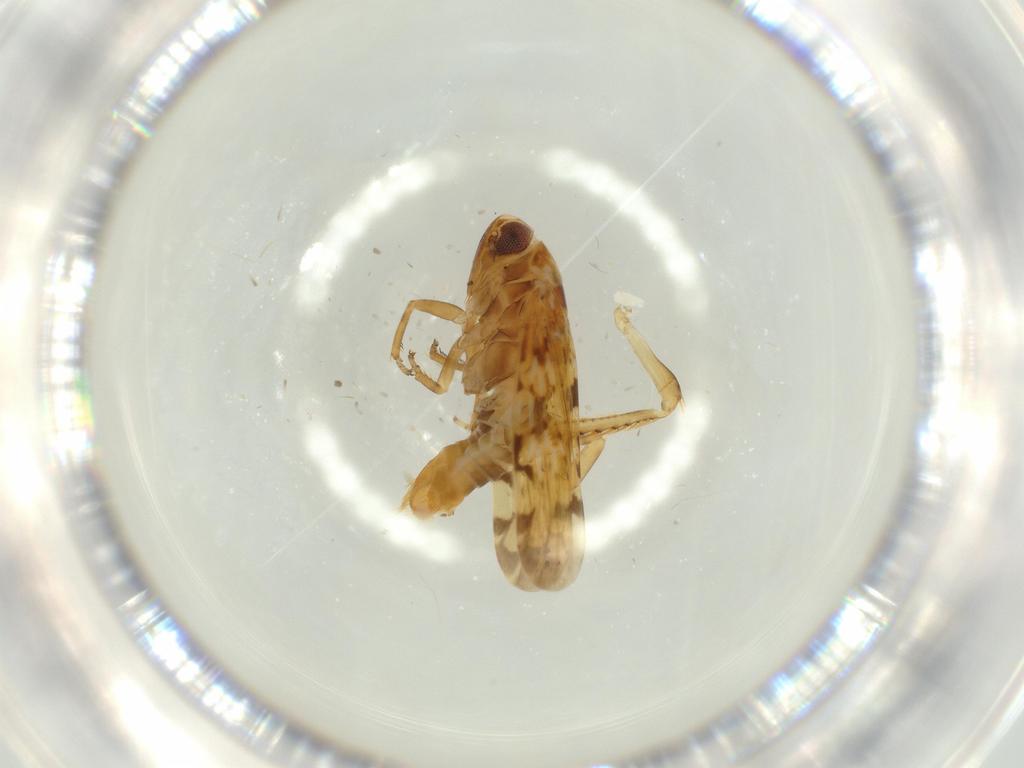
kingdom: Animalia
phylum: Arthropoda
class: Insecta
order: Hemiptera
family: Cicadellidae
